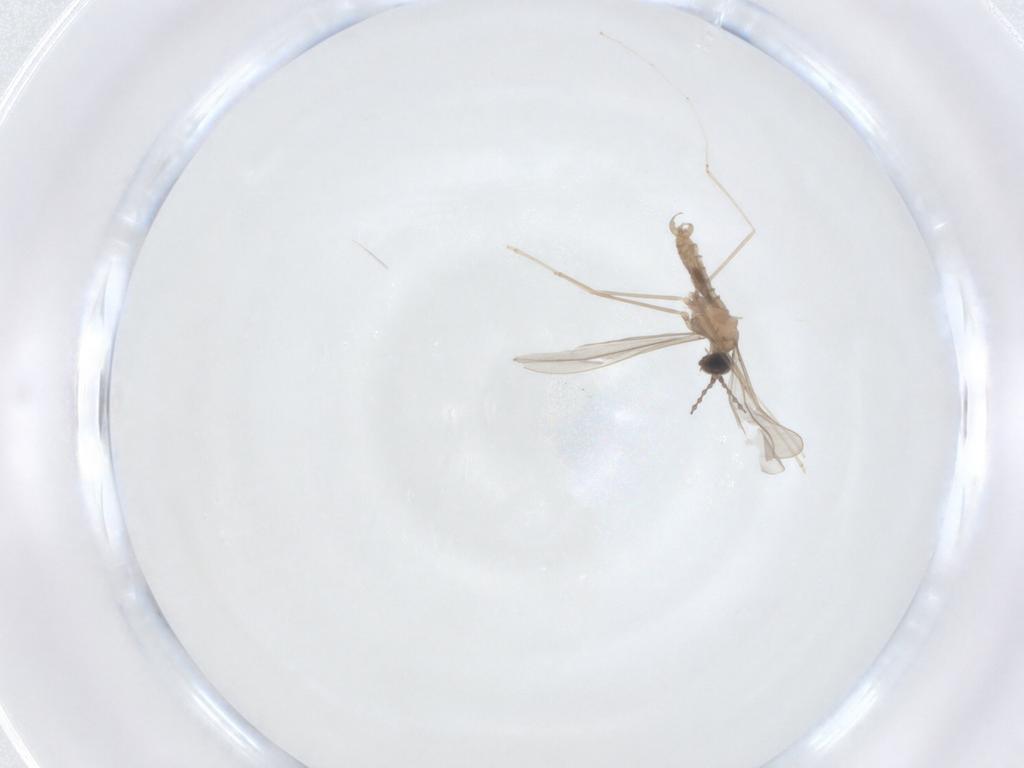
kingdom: Animalia
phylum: Arthropoda
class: Insecta
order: Diptera
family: Cecidomyiidae
